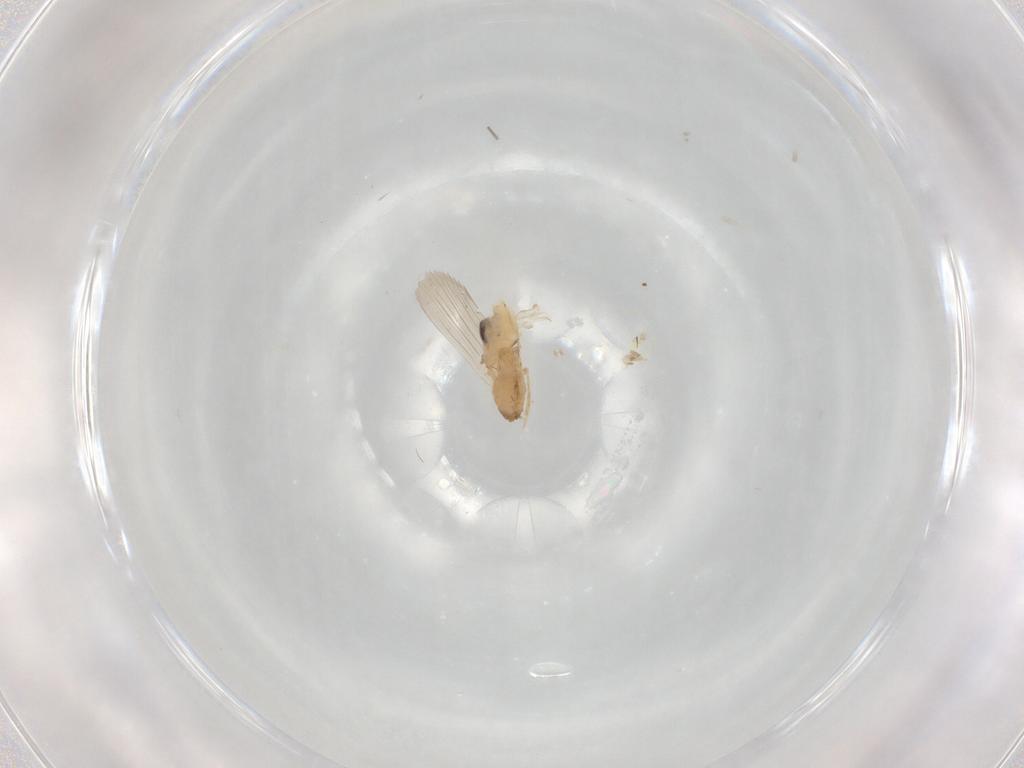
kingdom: Animalia
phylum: Arthropoda
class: Insecta
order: Diptera
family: Psychodidae
